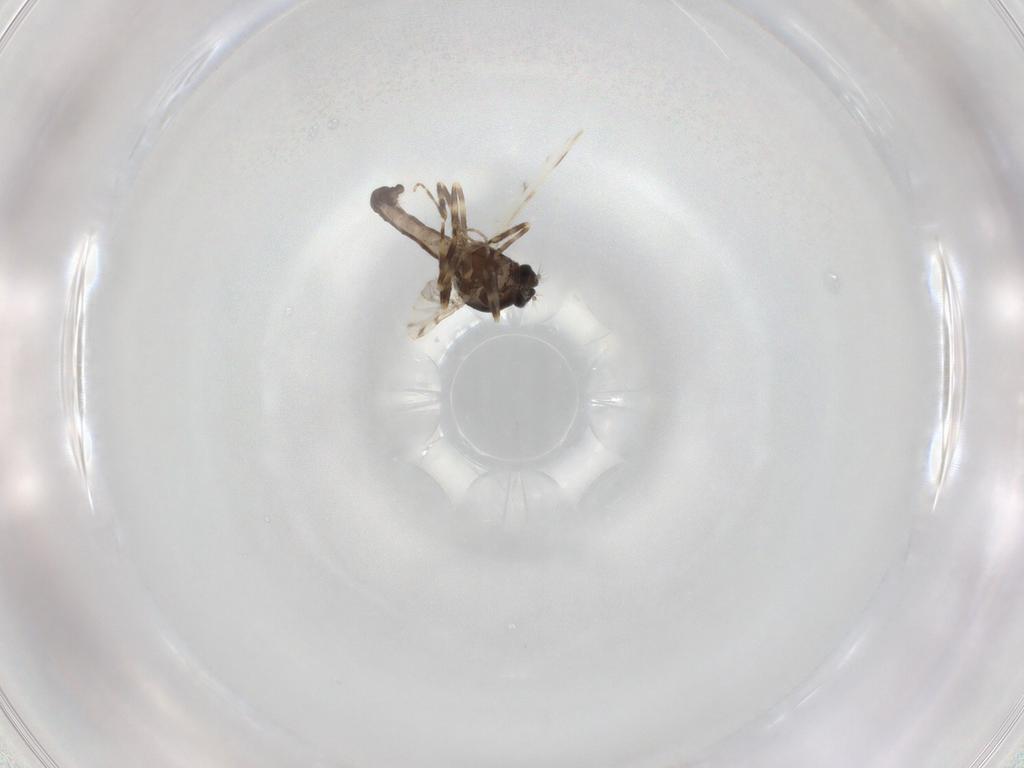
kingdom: Animalia
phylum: Arthropoda
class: Insecta
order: Diptera
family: Ceratopogonidae
